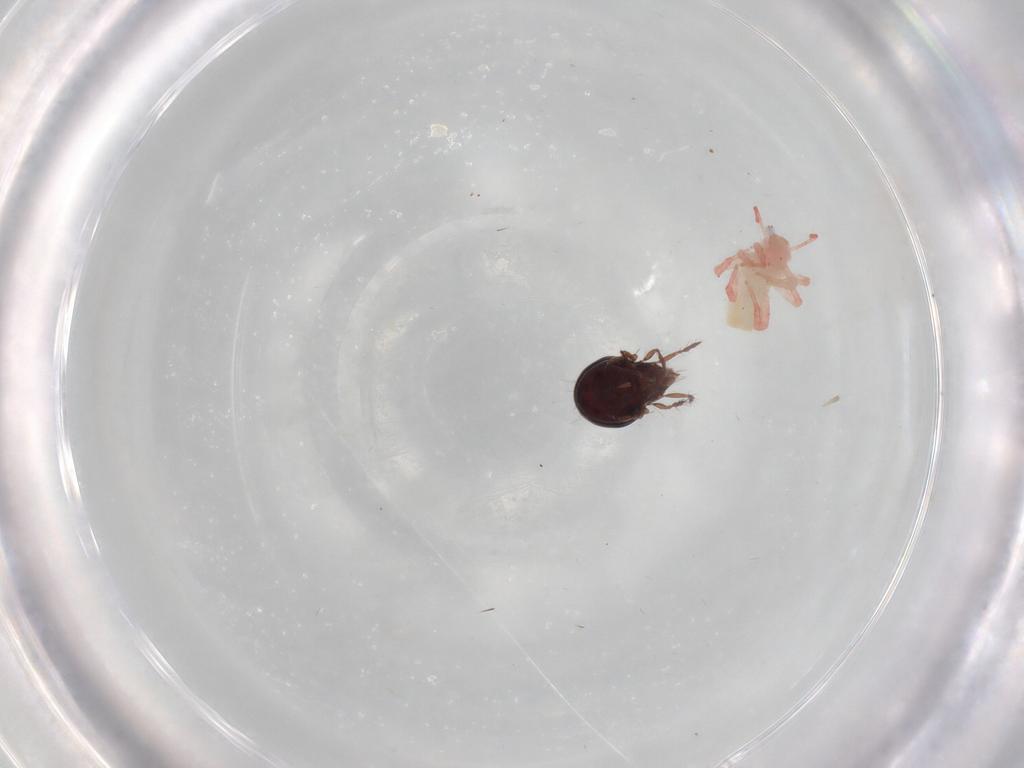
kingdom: Animalia
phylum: Arthropoda
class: Arachnida
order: Sarcoptiformes
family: Ceratoppiidae
